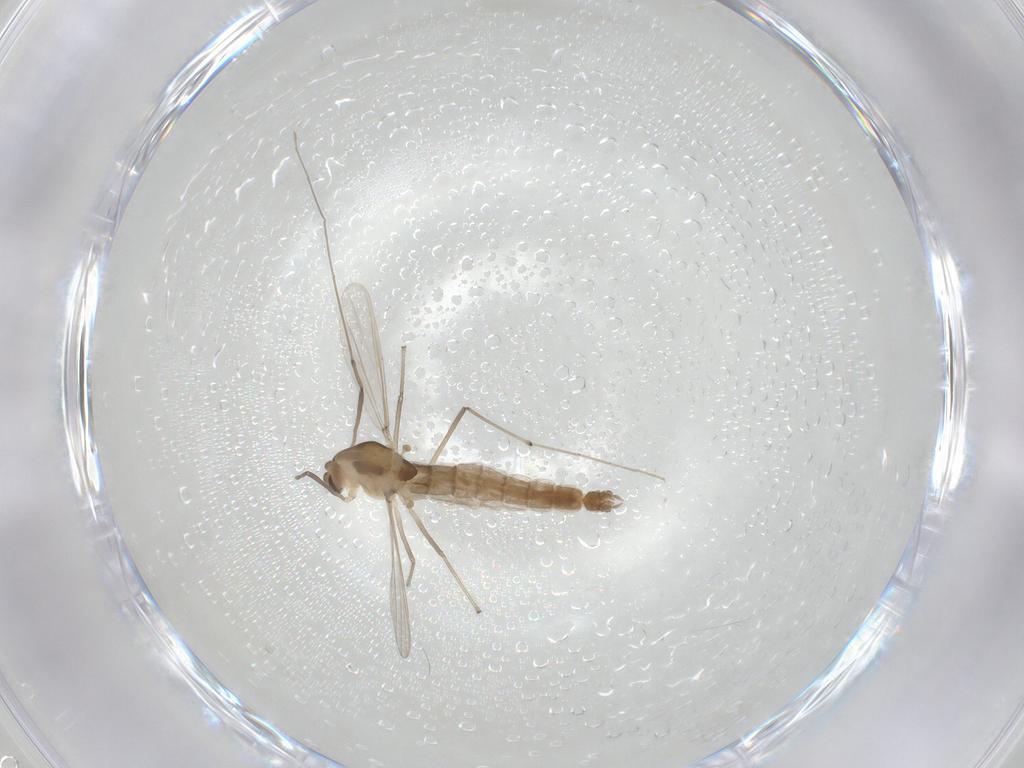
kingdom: Animalia
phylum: Arthropoda
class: Insecta
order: Diptera
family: Chironomidae
